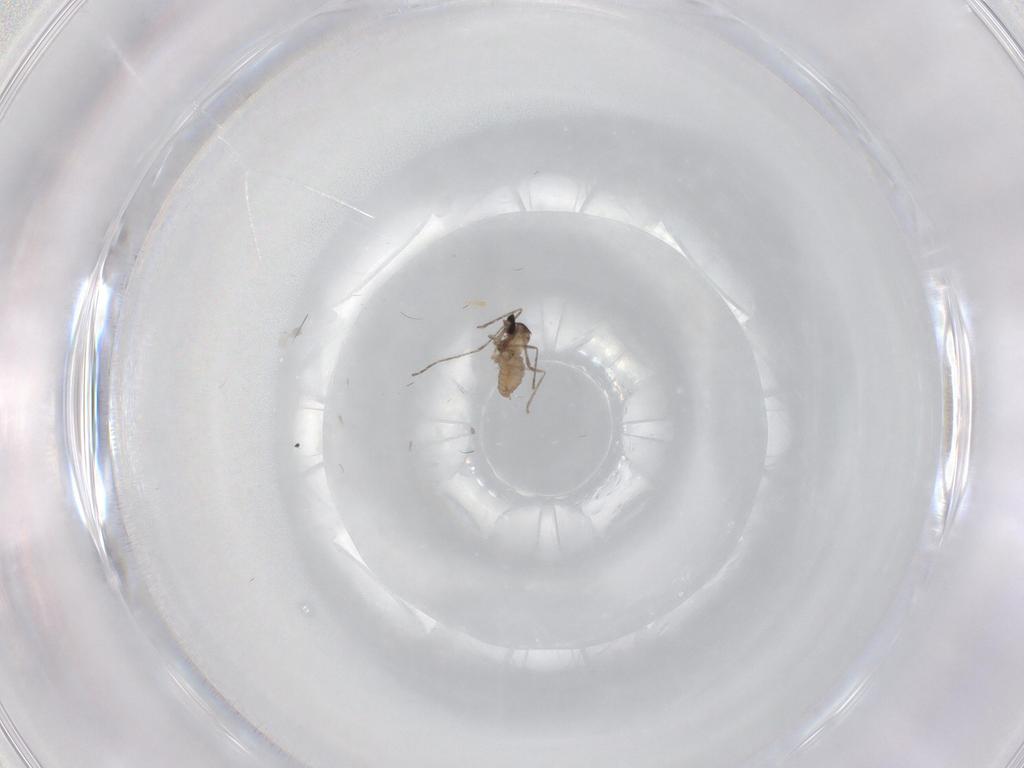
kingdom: Animalia
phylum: Arthropoda
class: Insecta
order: Diptera
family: Cecidomyiidae
